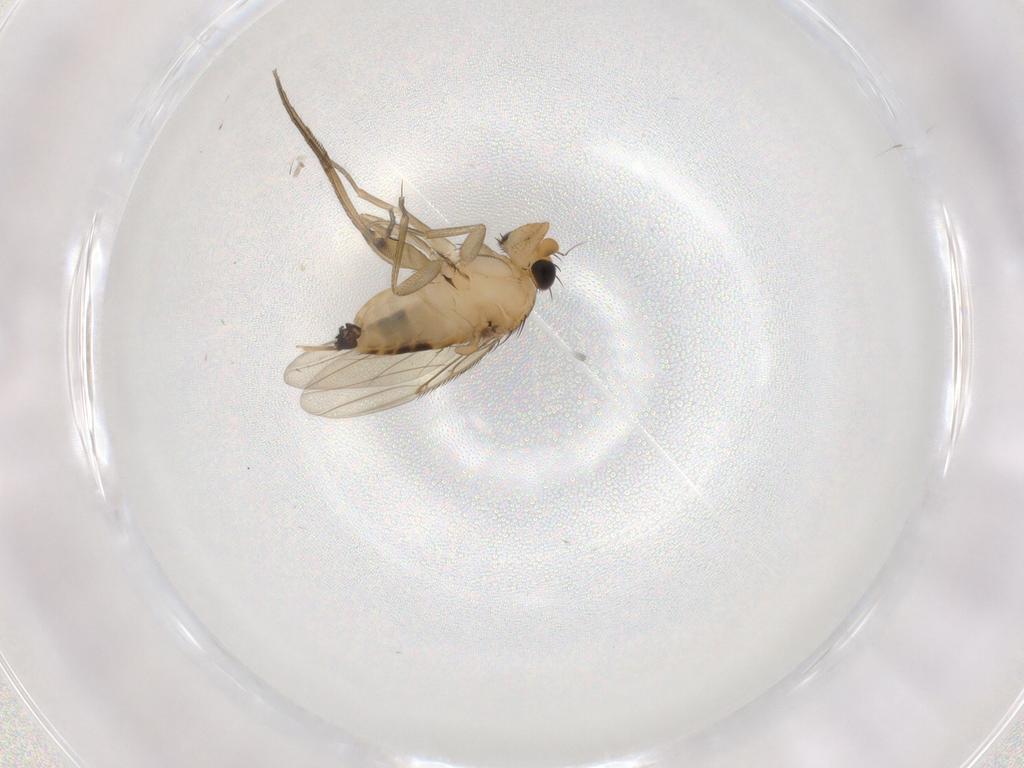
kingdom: Animalia
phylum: Arthropoda
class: Insecta
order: Diptera
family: Phoridae
